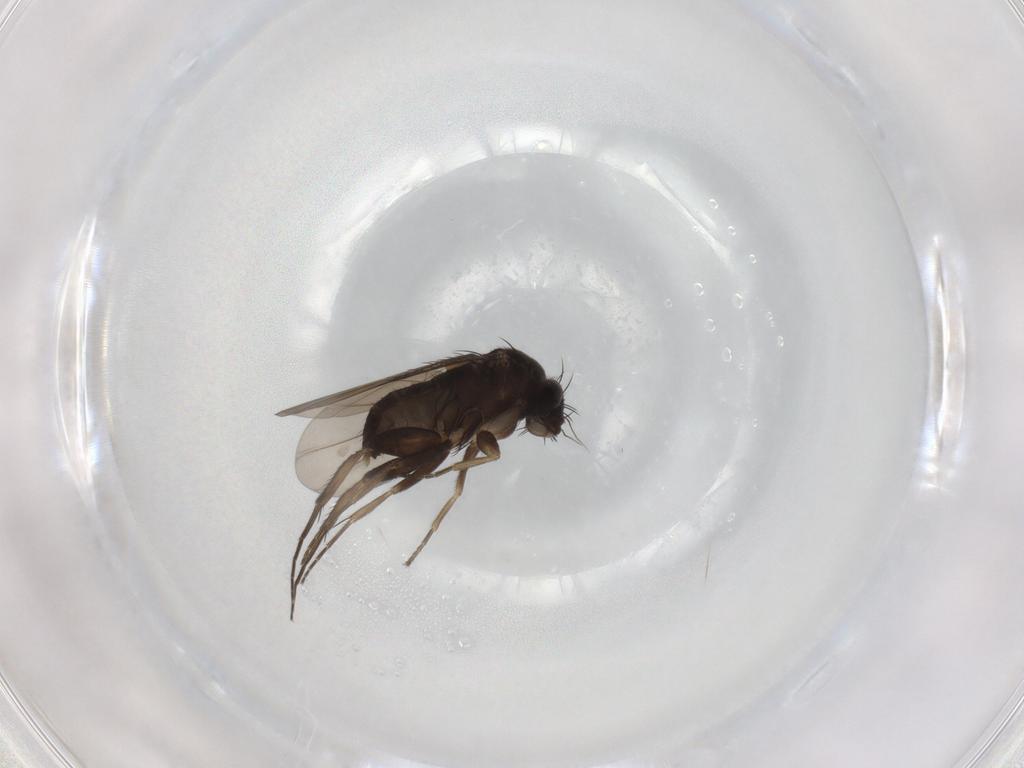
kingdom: Animalia
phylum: Arthropoda
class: Insecta
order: Diptera
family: Phoridae
